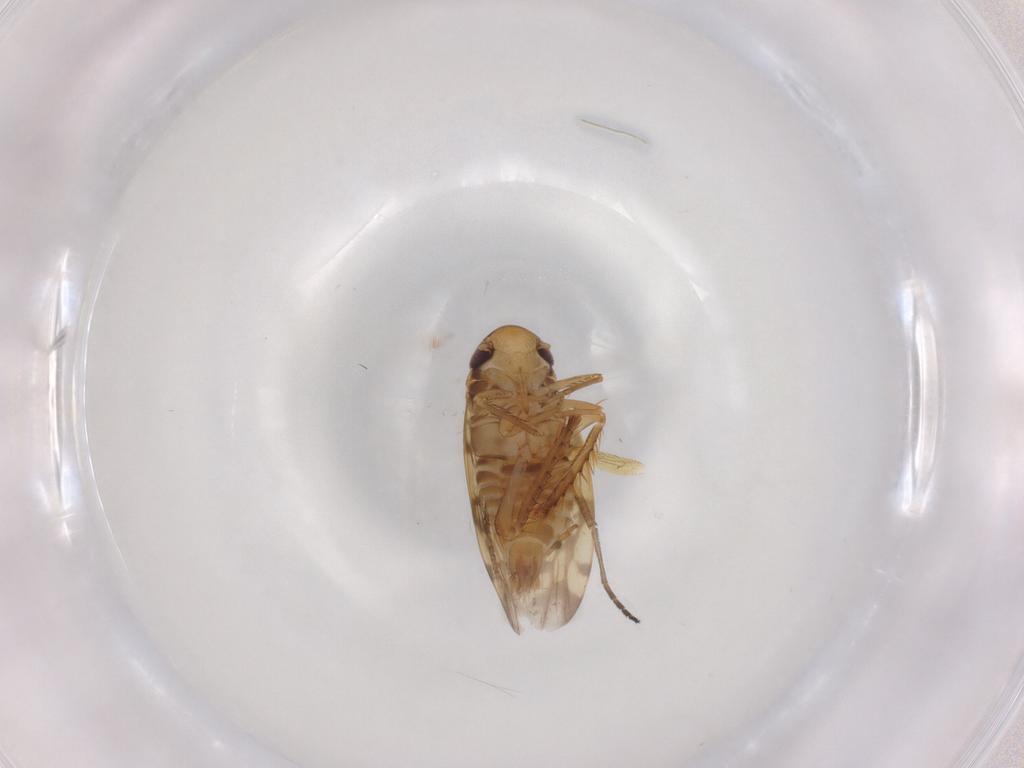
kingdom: Animalia
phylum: Arthropoda
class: Insecta
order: Hemiptera
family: Cicadellidae
